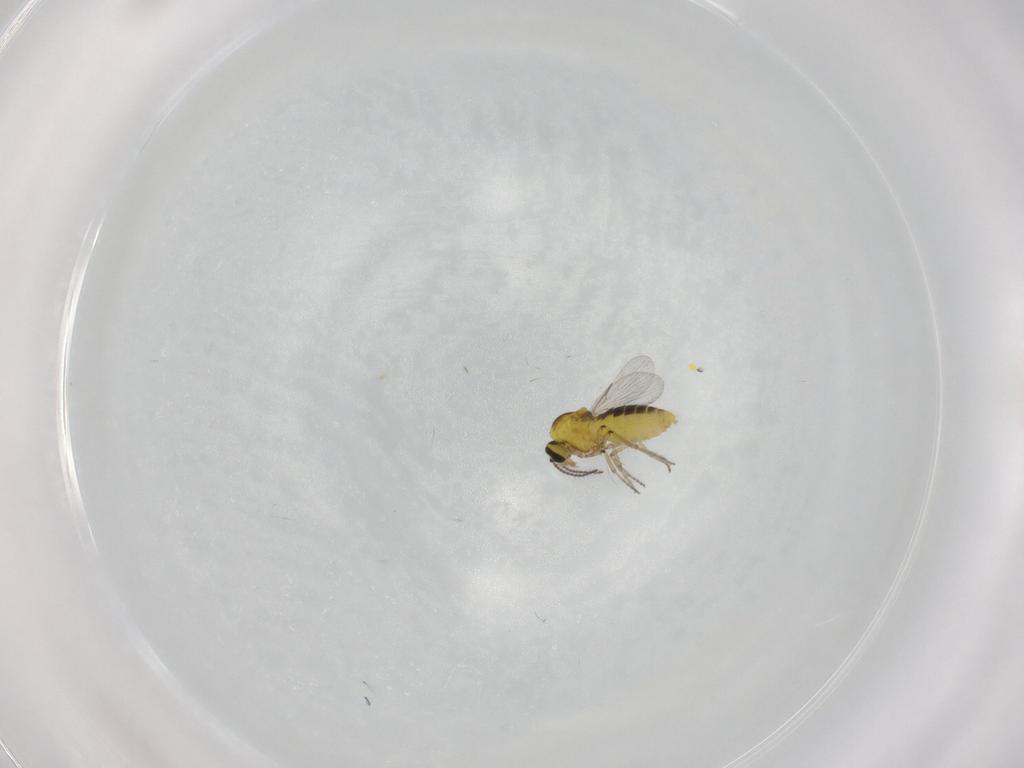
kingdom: Animalia
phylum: Arthropoda
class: Insecta
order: Diptera
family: Ceratopogonidae
